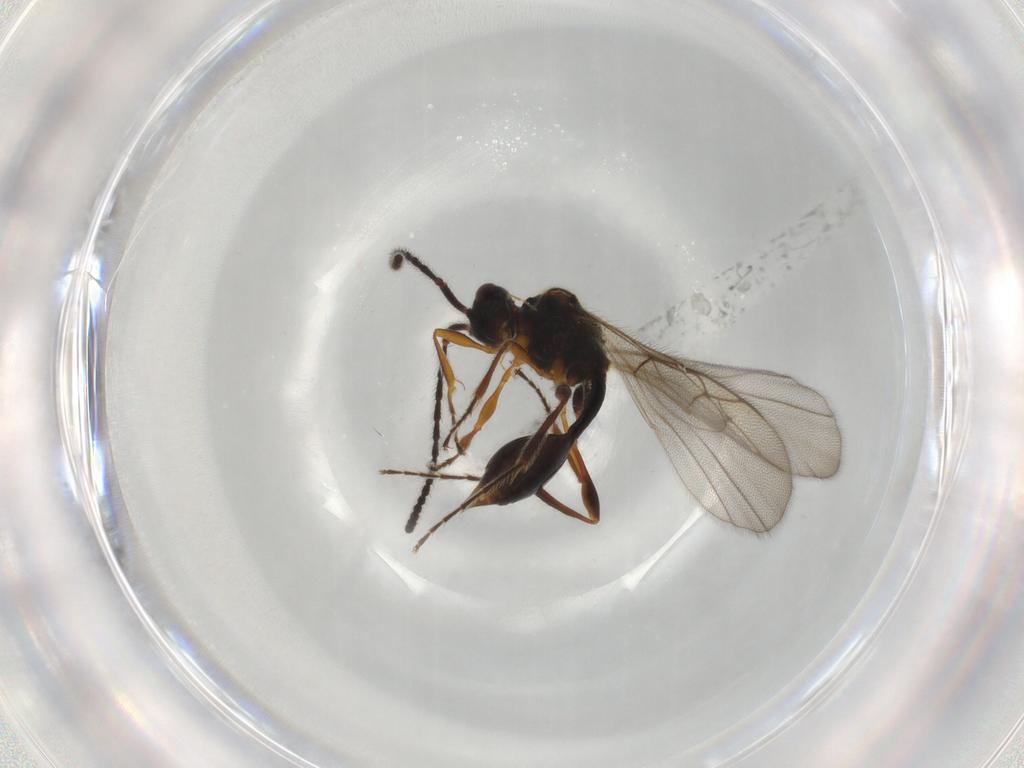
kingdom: Animalia
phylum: Arthropoda
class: Insecta
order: Hymenoptera
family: Diapriidae
